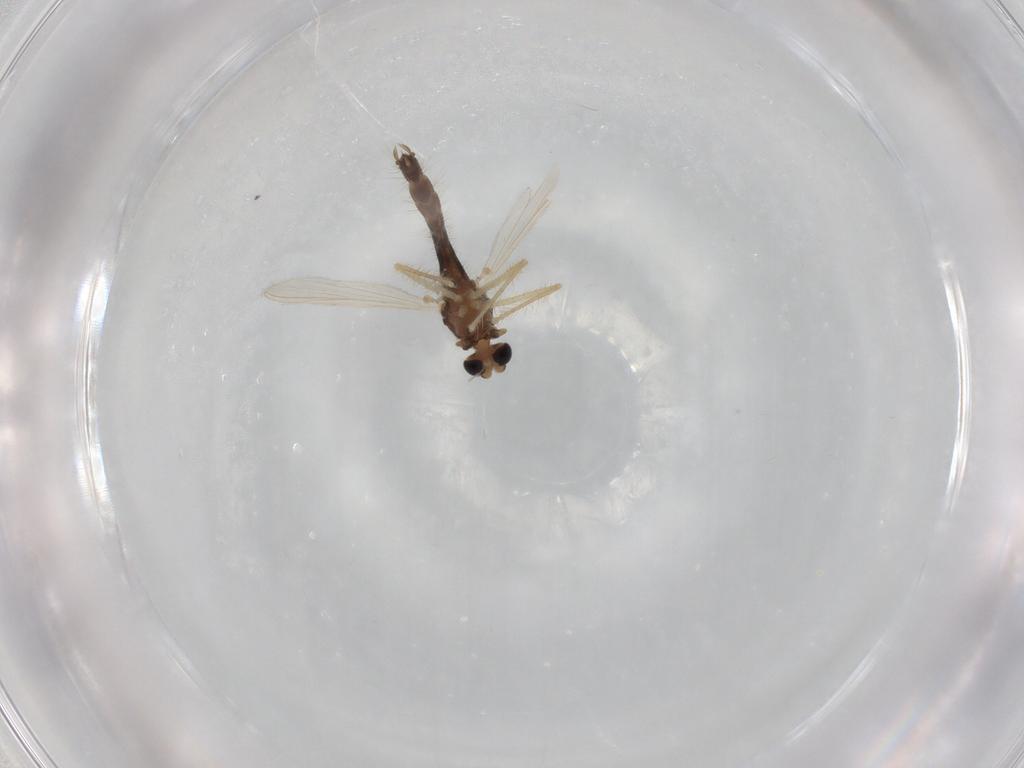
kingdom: Animalia
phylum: Arthropoda
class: Insecta
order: Diptera
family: Chironomidae
